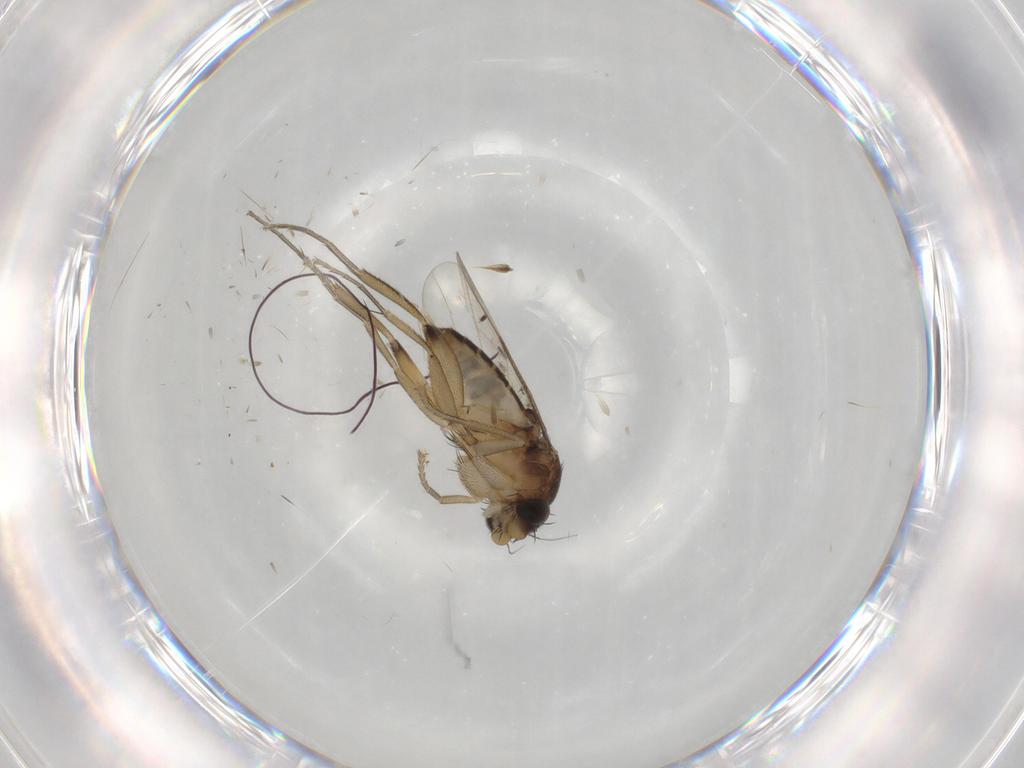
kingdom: Animalia
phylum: Arthropoda
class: Insecta
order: Diptera
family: Phoridae
